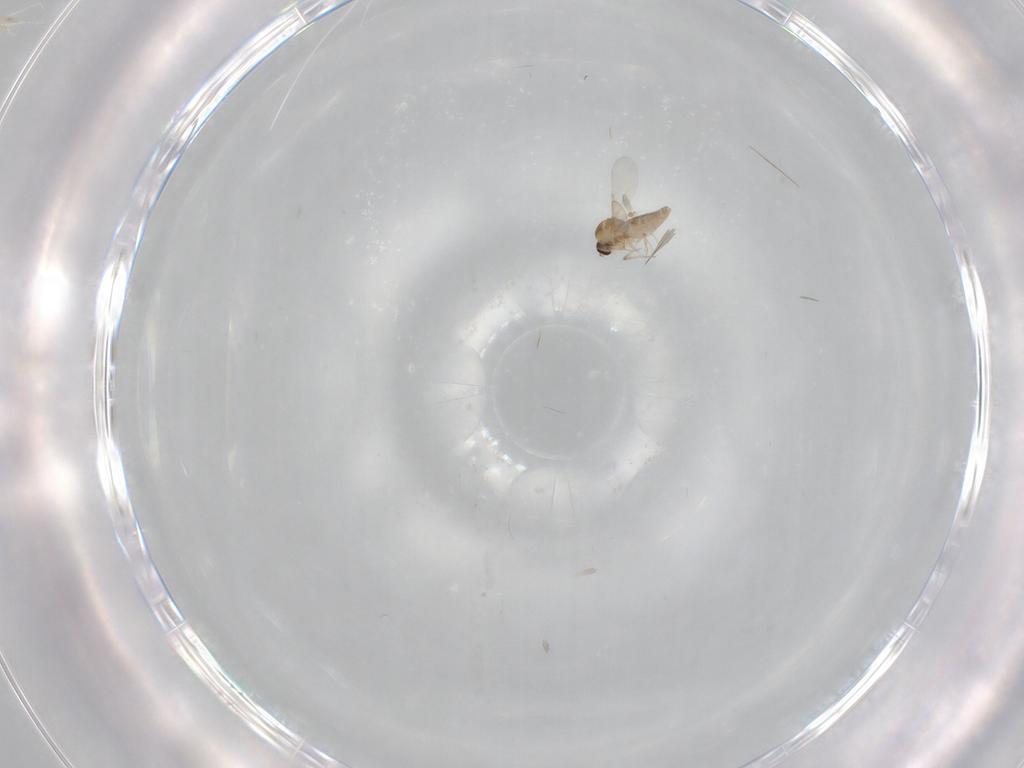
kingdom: Animalia
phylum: Arthropoda
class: Insecta
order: Diptera
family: Ceratopogonidae
